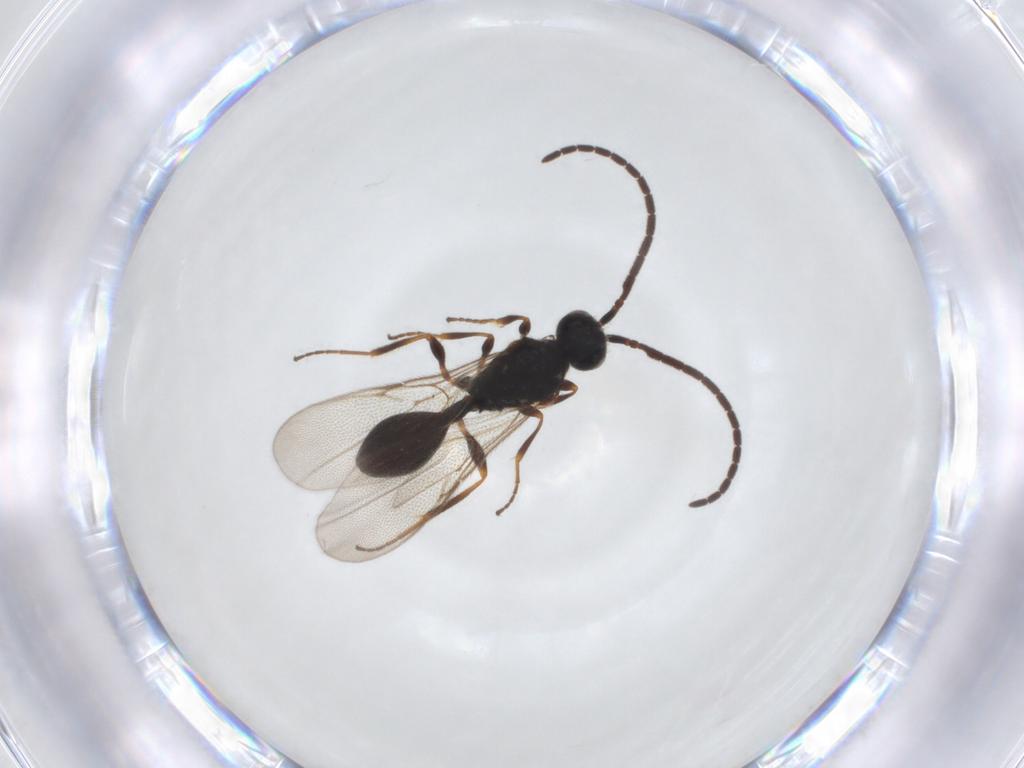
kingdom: Animalia
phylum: Arthropoda
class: Insecta
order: Hymenoptera
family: Diapriidae
